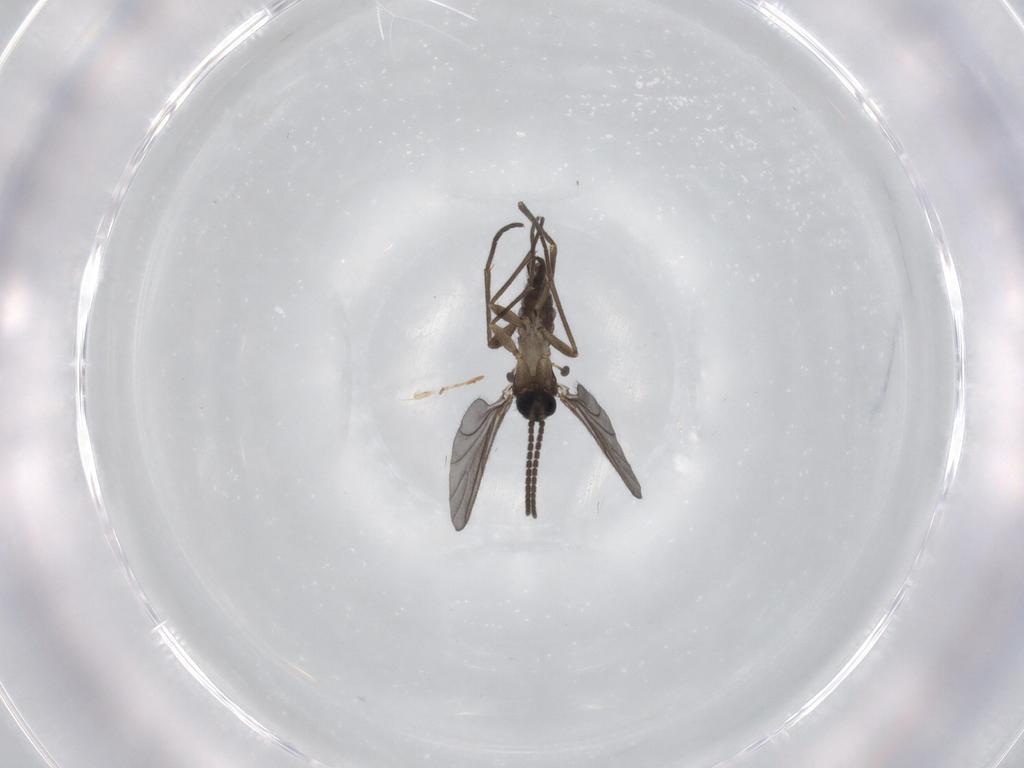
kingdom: Animalia
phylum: Arthropoda
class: Insecta
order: Diptera
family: Sciaridae
